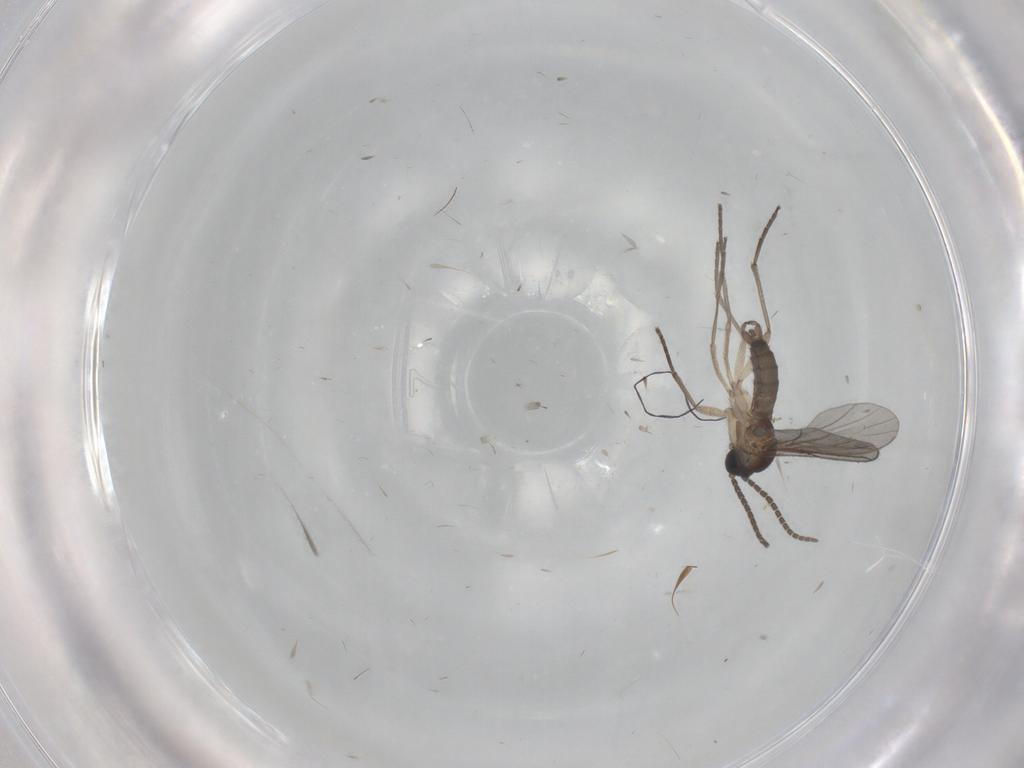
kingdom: Animalia
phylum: Arthropoda
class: Insecta
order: Diptera
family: Sciaridae
